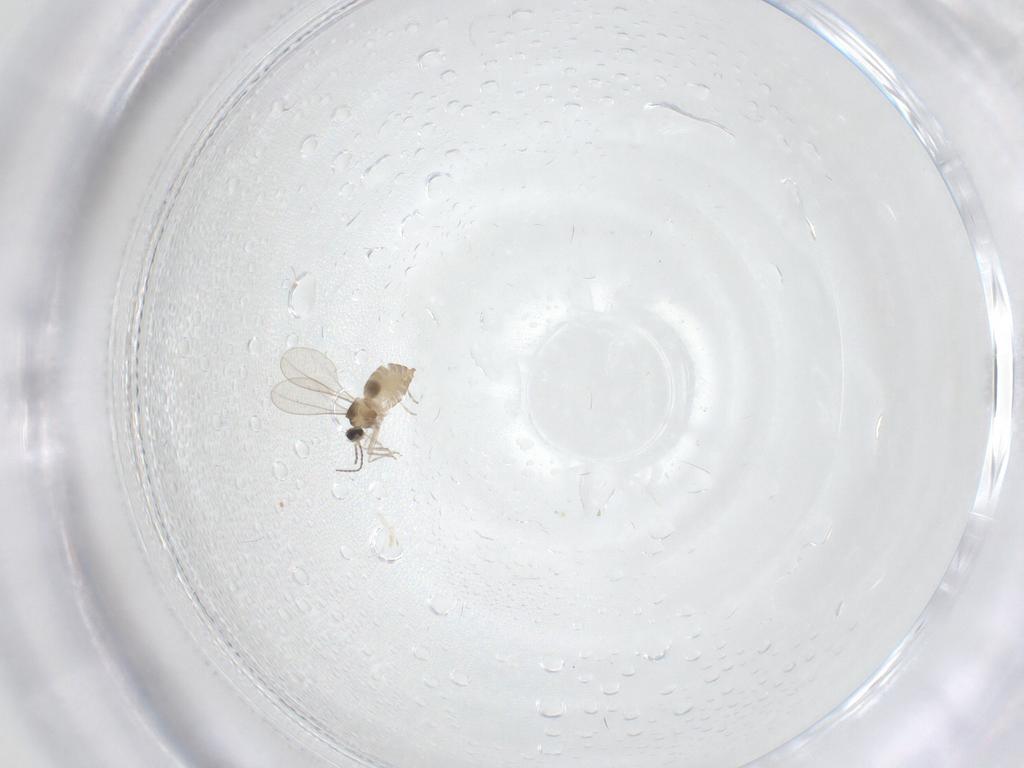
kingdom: Animalia
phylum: Arthropoda
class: Insecta
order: Diptera
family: Cecidomyiidae
